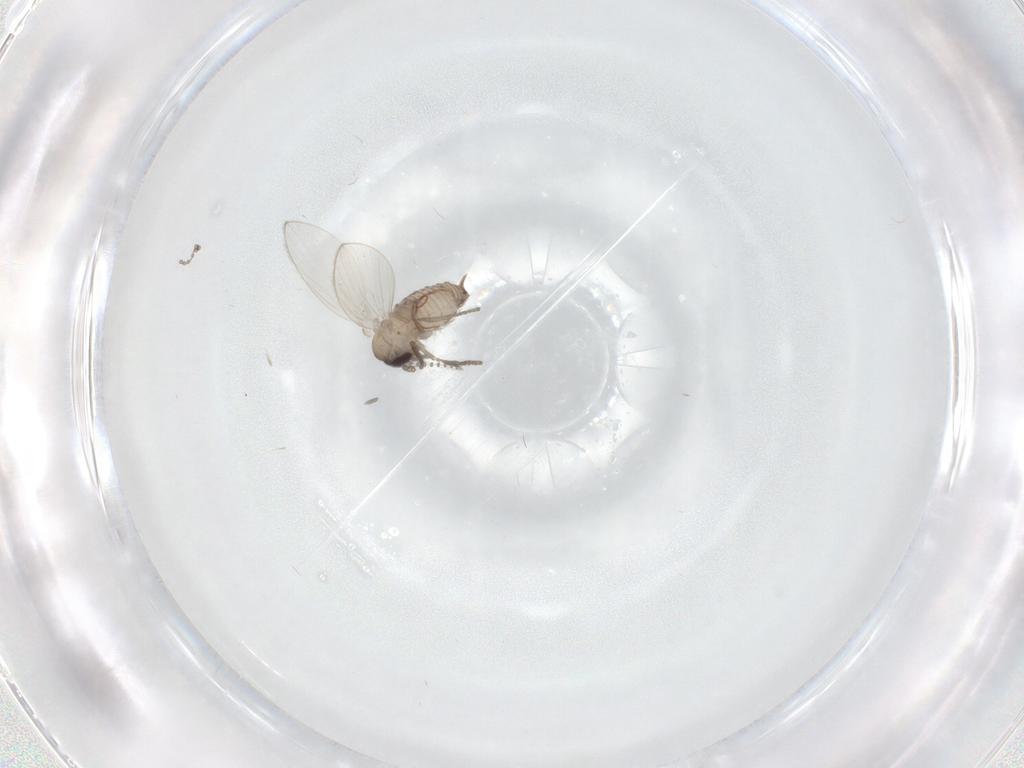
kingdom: Animalia
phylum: Arthropoda
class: Insecta
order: Diptera
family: Psychodidae
